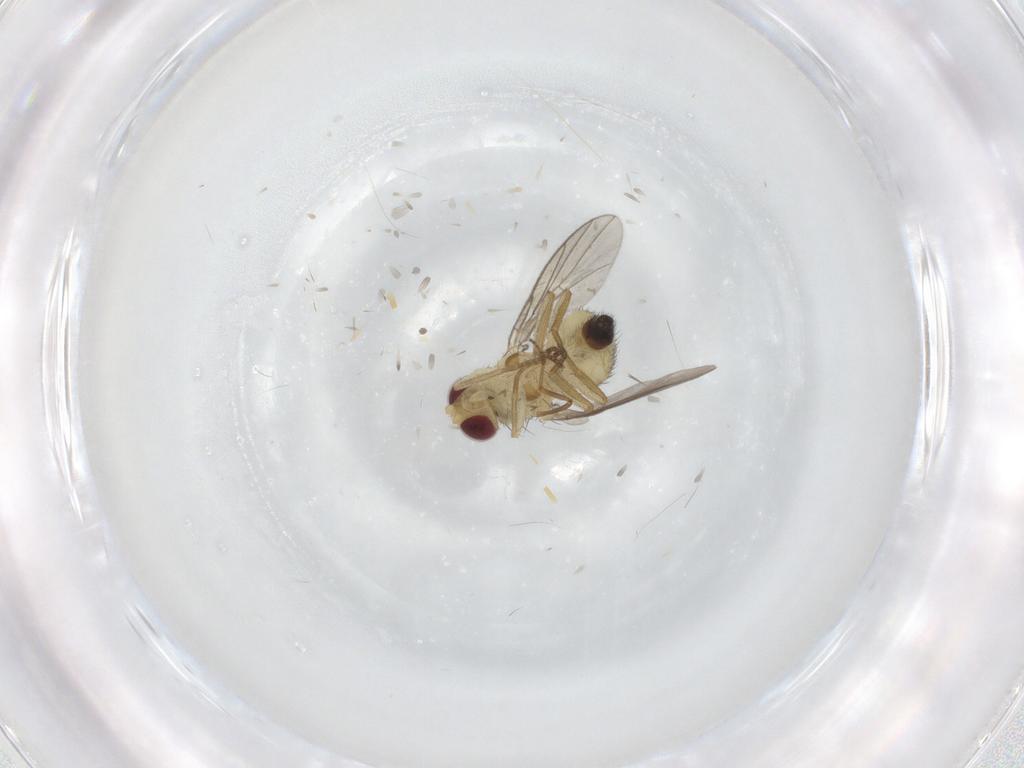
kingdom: Animalia
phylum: Arthropoda
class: Insecta
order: Diptera
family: Agromyzidae
